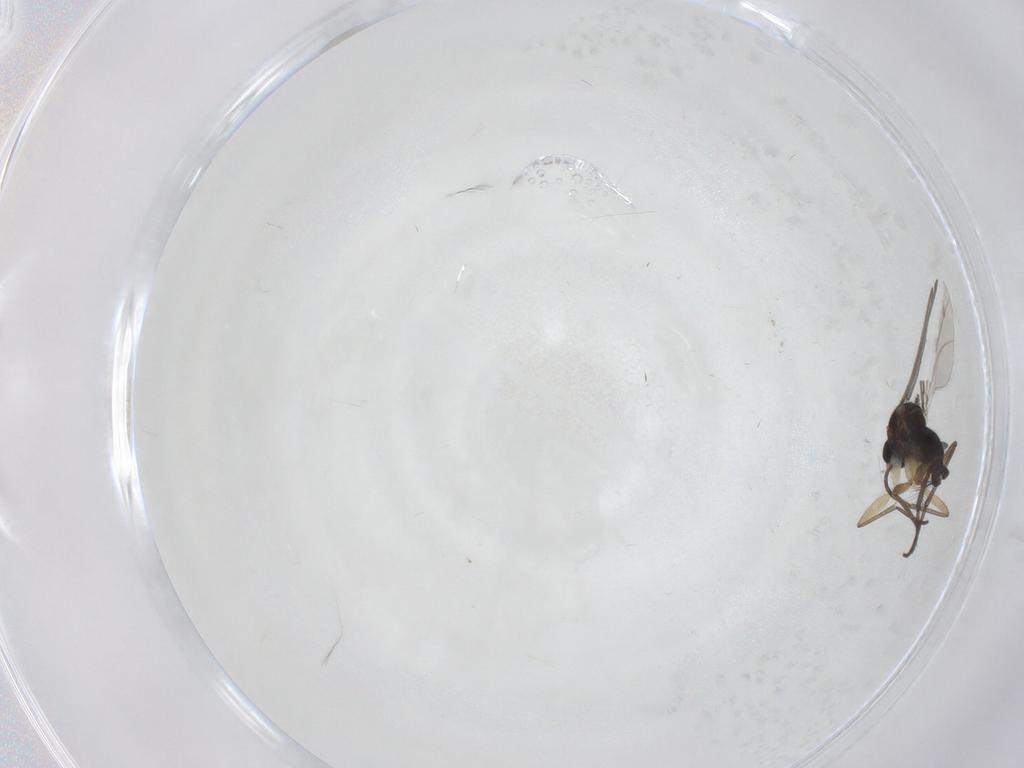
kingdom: Animalia
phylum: Arthropoda
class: Insecta
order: Diptera
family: Sciaridae
